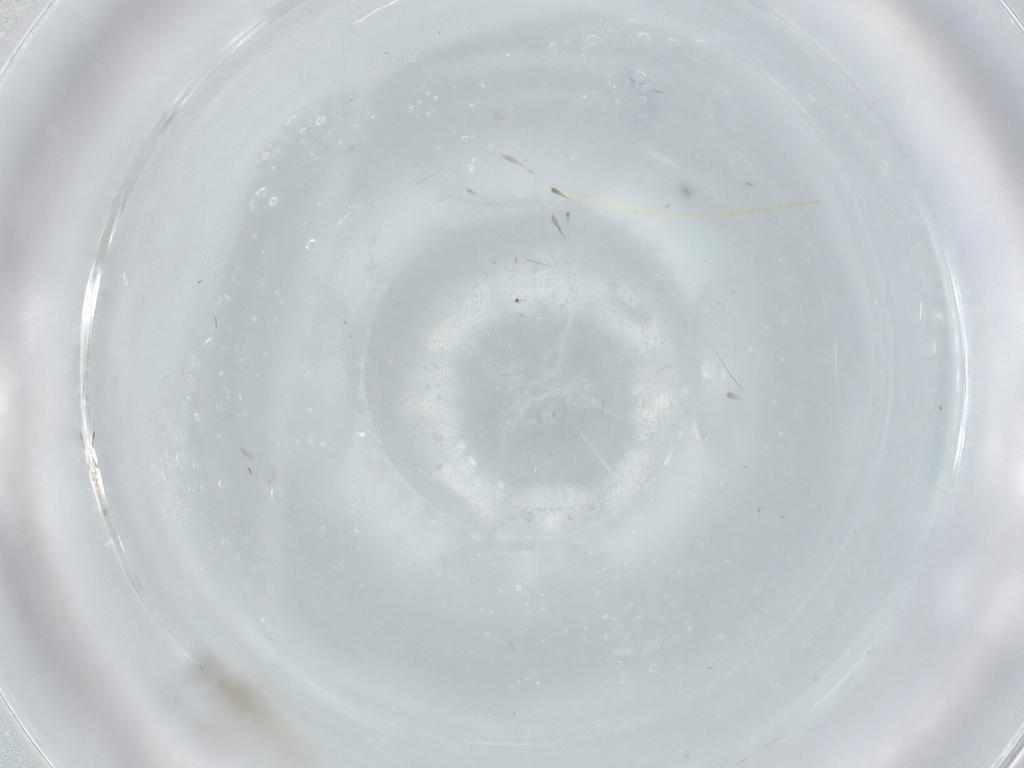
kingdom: Animalia
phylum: Arthropoda
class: Insecta
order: Diptera
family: Cecidomyiidae
